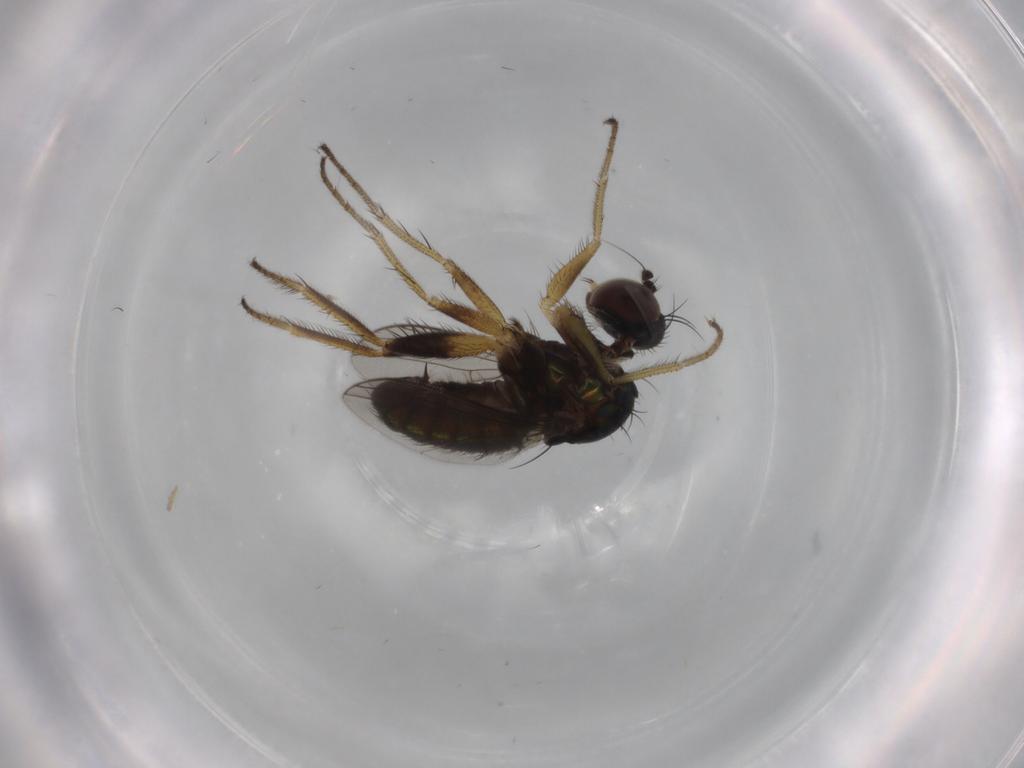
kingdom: Animalia
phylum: Arthropoda
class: Insecta
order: Diptera
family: Dolichopodidae
